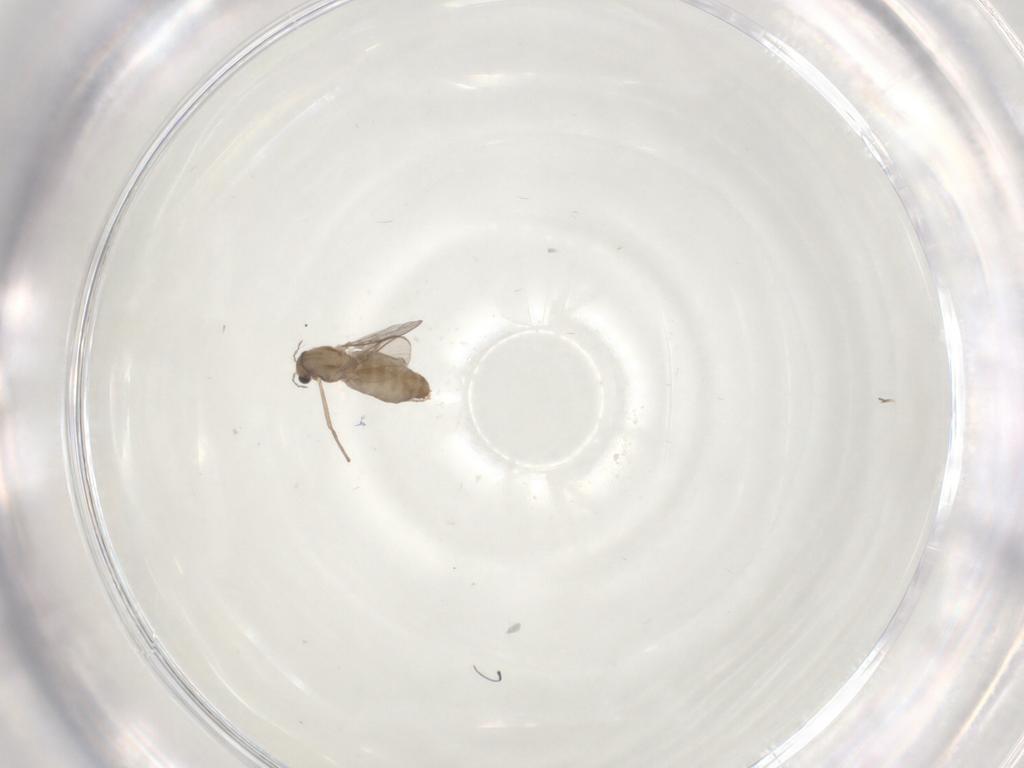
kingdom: Animalia
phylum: Arthropoda
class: Insecta
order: Diptera
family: Chironomidae
